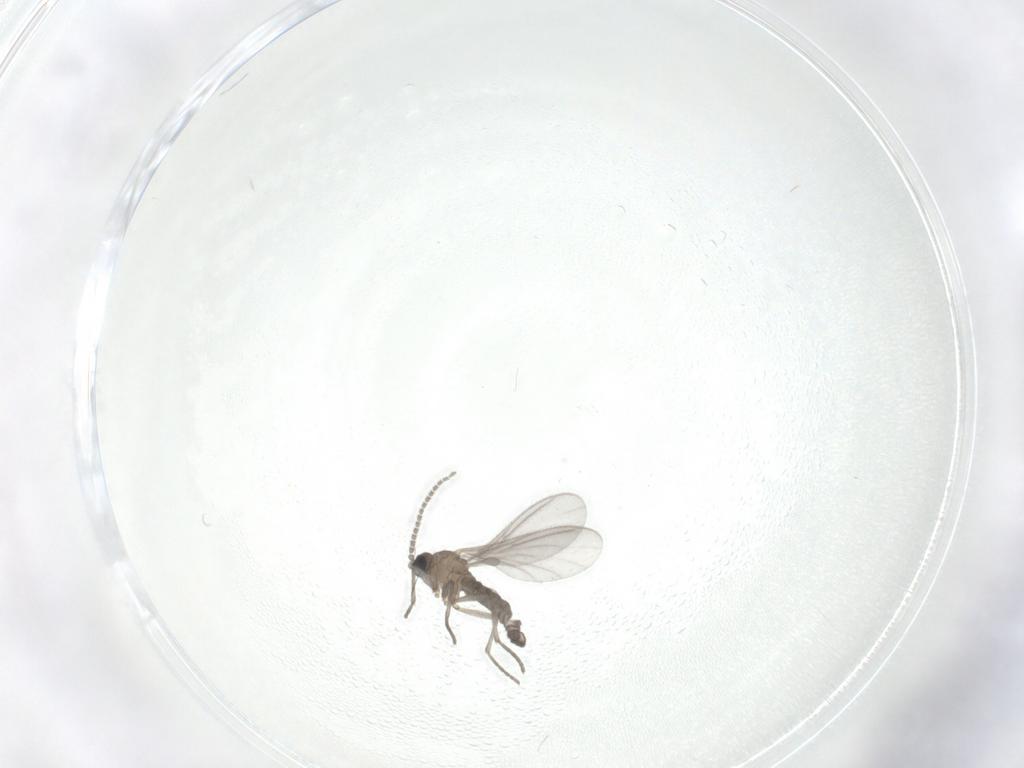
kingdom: Animalia
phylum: Arthropoda
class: Insecta
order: Diptera
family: Sciaridae
